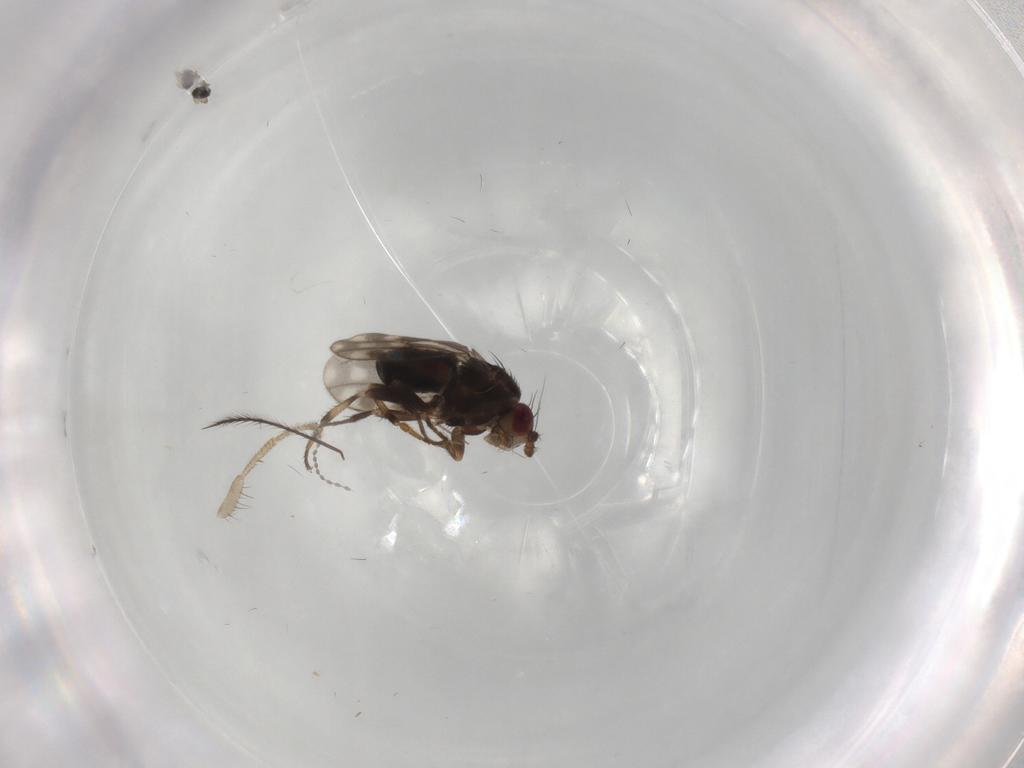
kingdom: Animalia
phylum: Arthropoda
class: Insecta
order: Diptera
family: Sphaeroceridae
